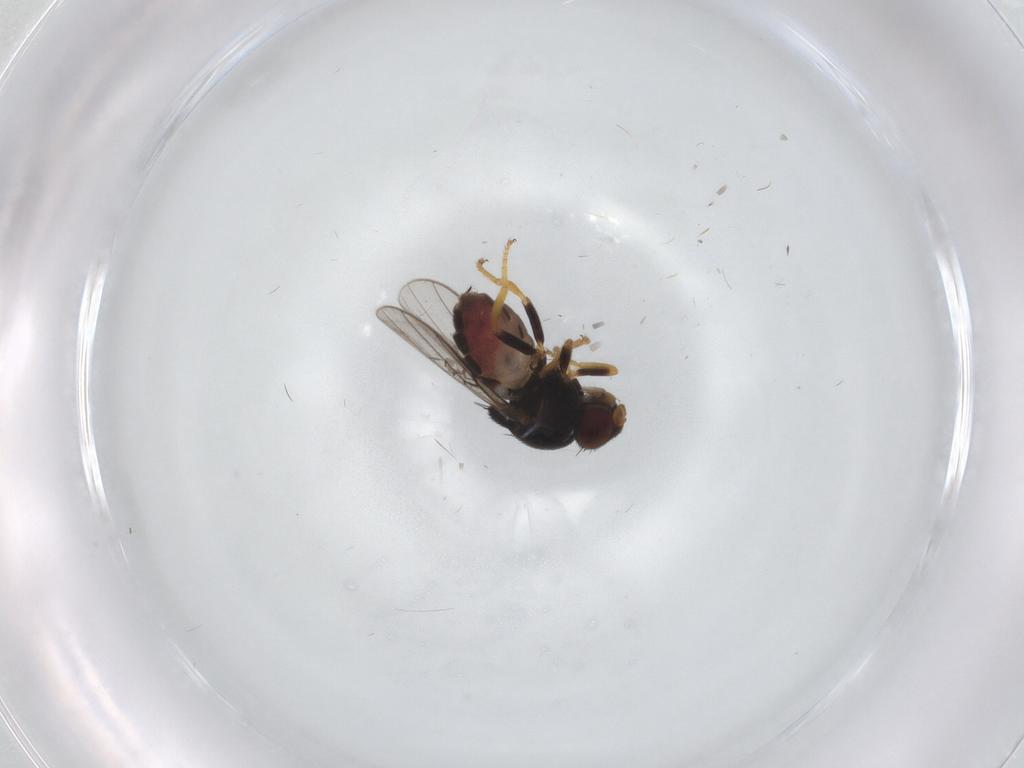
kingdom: Animalia
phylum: Arthropoda
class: Insecta
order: Diptera
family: Chloropidae
